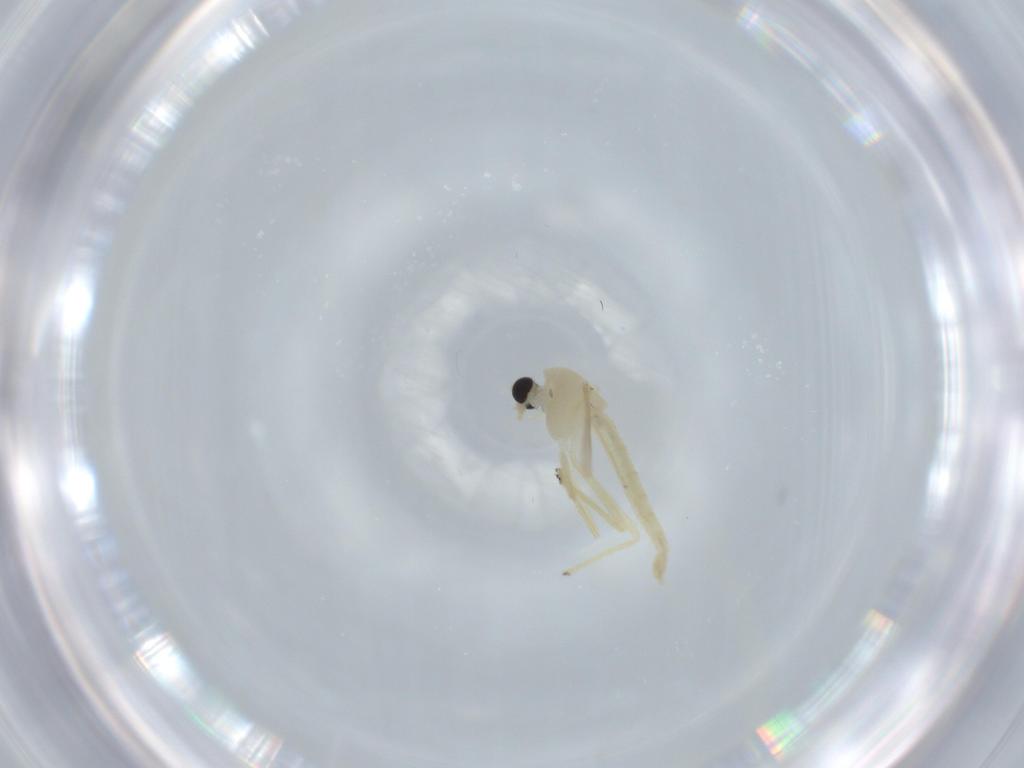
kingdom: Animalia
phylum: Arthropoda
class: Insecta
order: Diptera
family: Chironomidae
